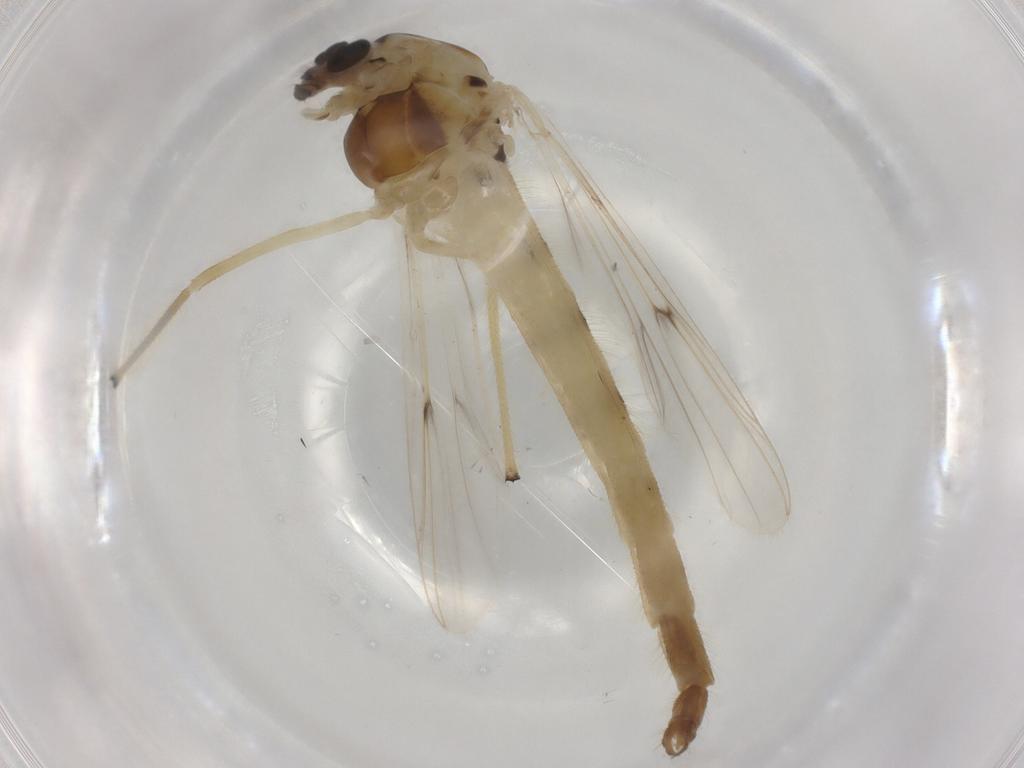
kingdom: Animalia
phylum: Arthropoda
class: Insecta
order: Diptera
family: Chironomidae
